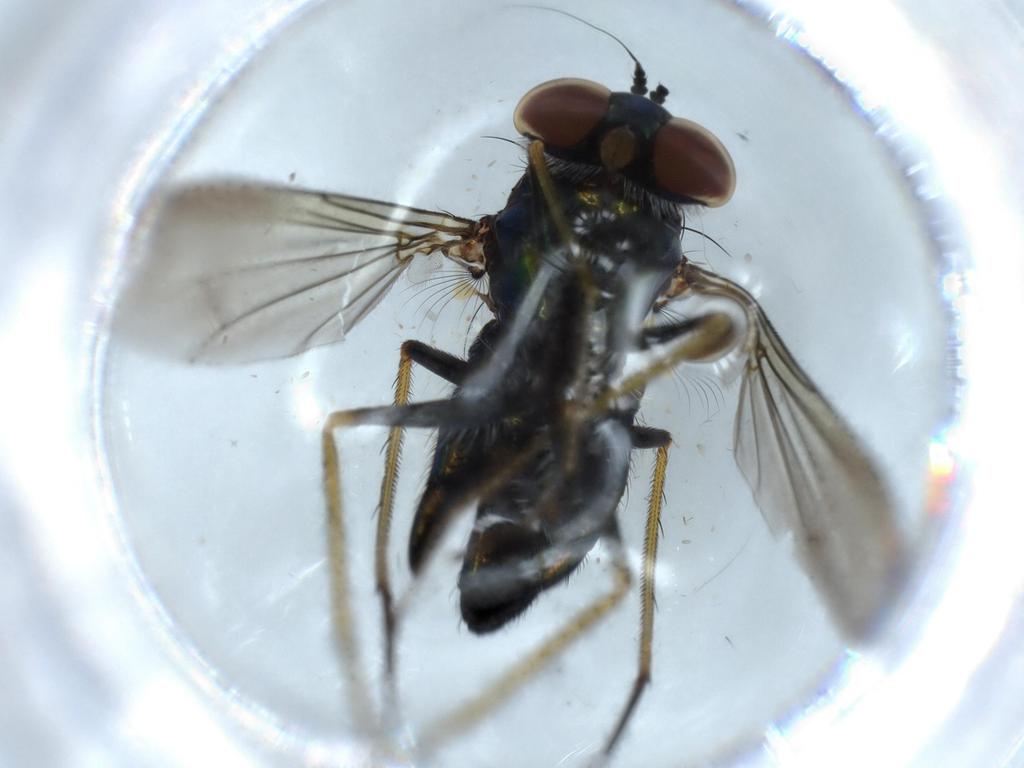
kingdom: Animalia
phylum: Arthropoda
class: Insecta
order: Diptera
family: Dolichopodidae
